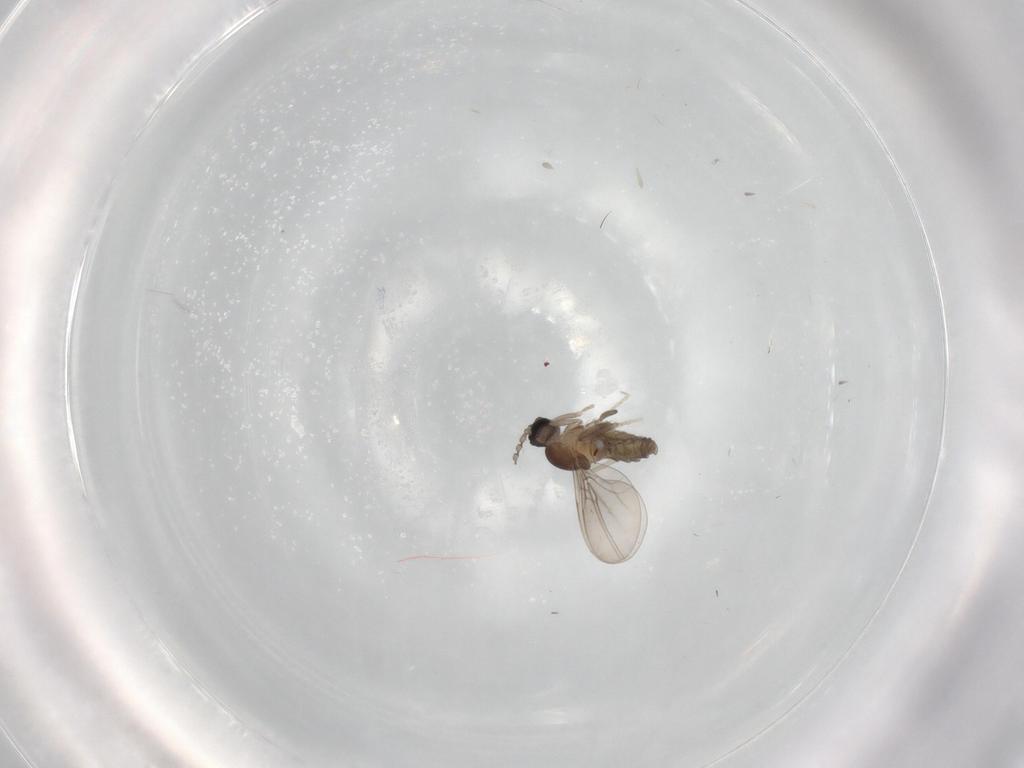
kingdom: Animalia
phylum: Arthropoda
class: Insecta
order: Diptera
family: Cecidomyiidae
